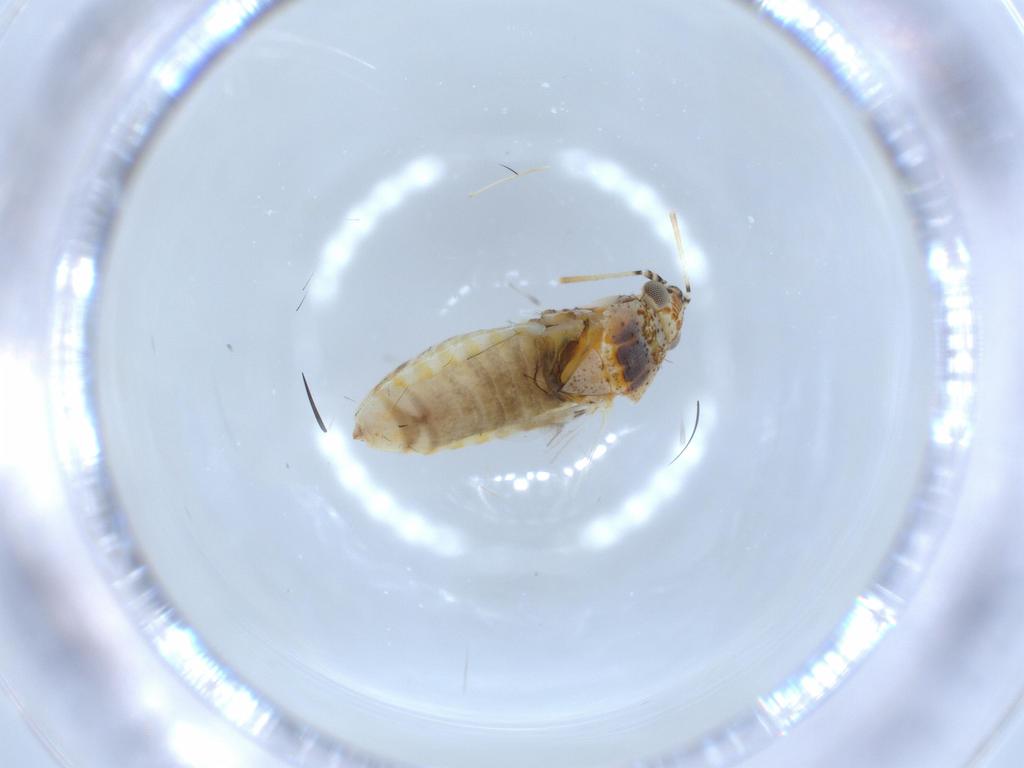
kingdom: Animalia
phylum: Arthropoda
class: Insecta
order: Hemiptera
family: Miridae
